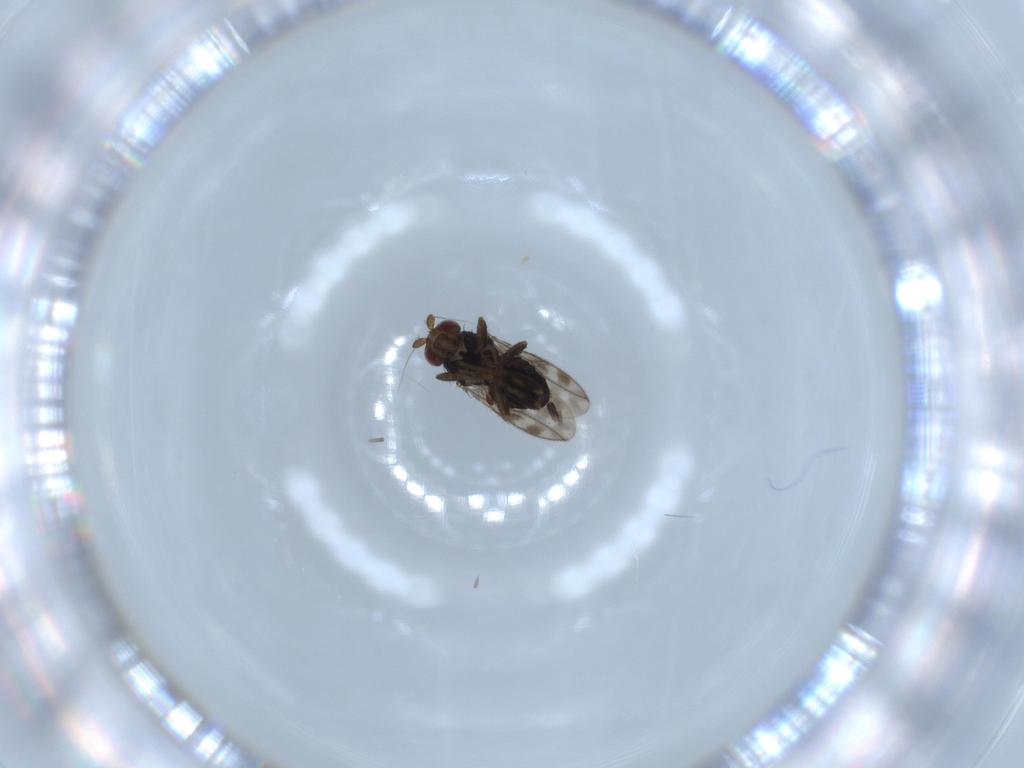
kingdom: Animalia
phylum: Arthropoda
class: Insecta
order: Diptera
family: Sphaeroceridae
